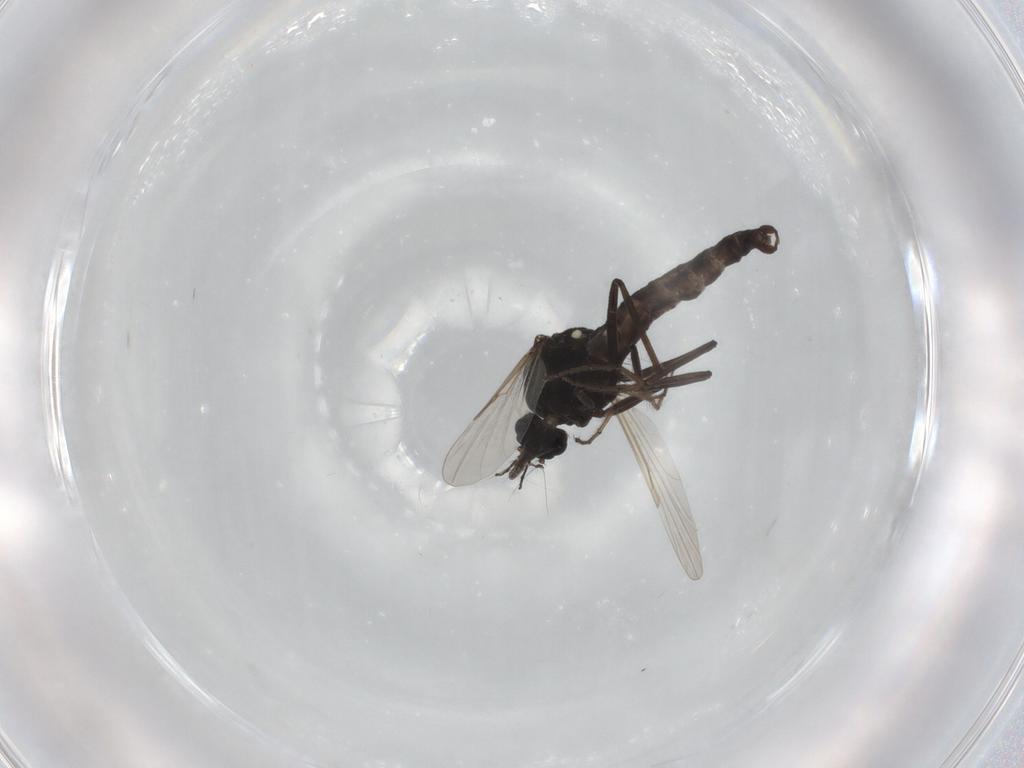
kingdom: Animalia
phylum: Arthropoda
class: Insecta
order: Diptera
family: Ceratopogonidae
